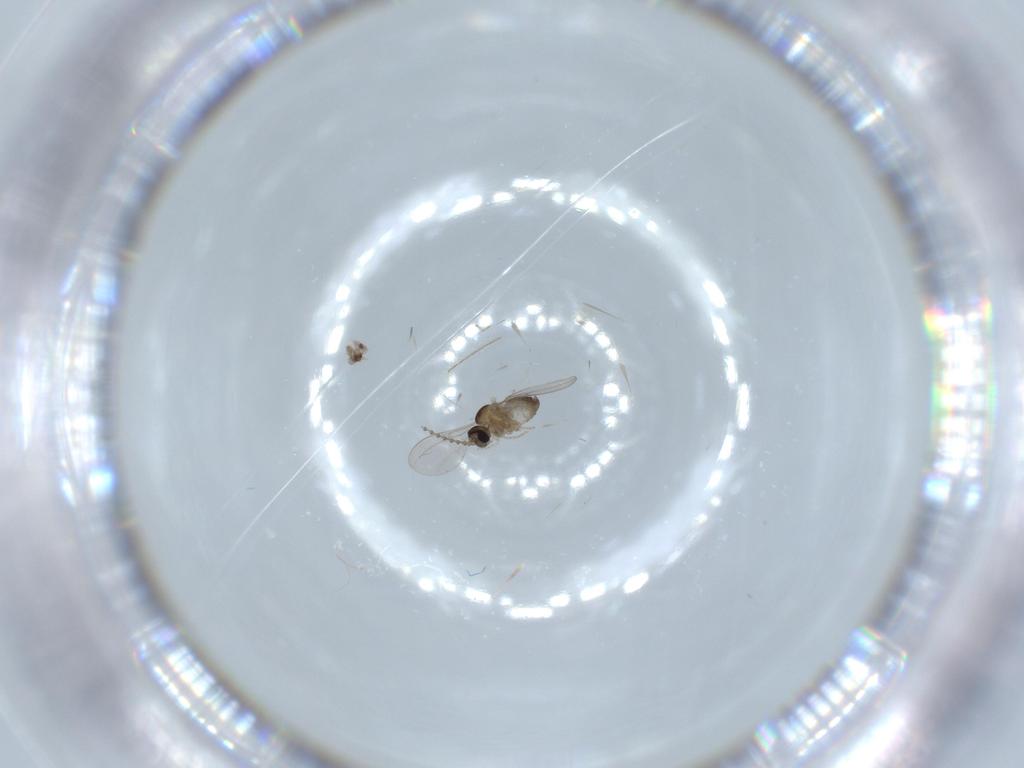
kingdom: Animalia
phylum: Arthropoda
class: Insecta
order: Diptera
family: Cecidomyiidae
